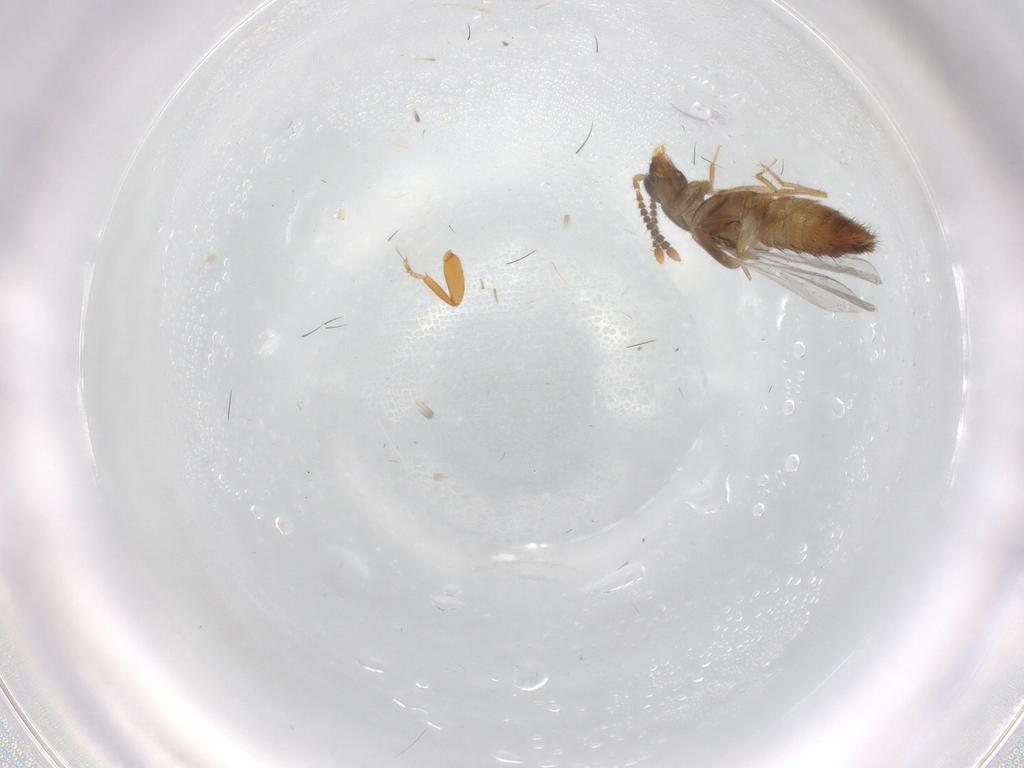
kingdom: Animalia
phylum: Arthropoda
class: Insecta
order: Coleoptera
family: Staphylinidae
